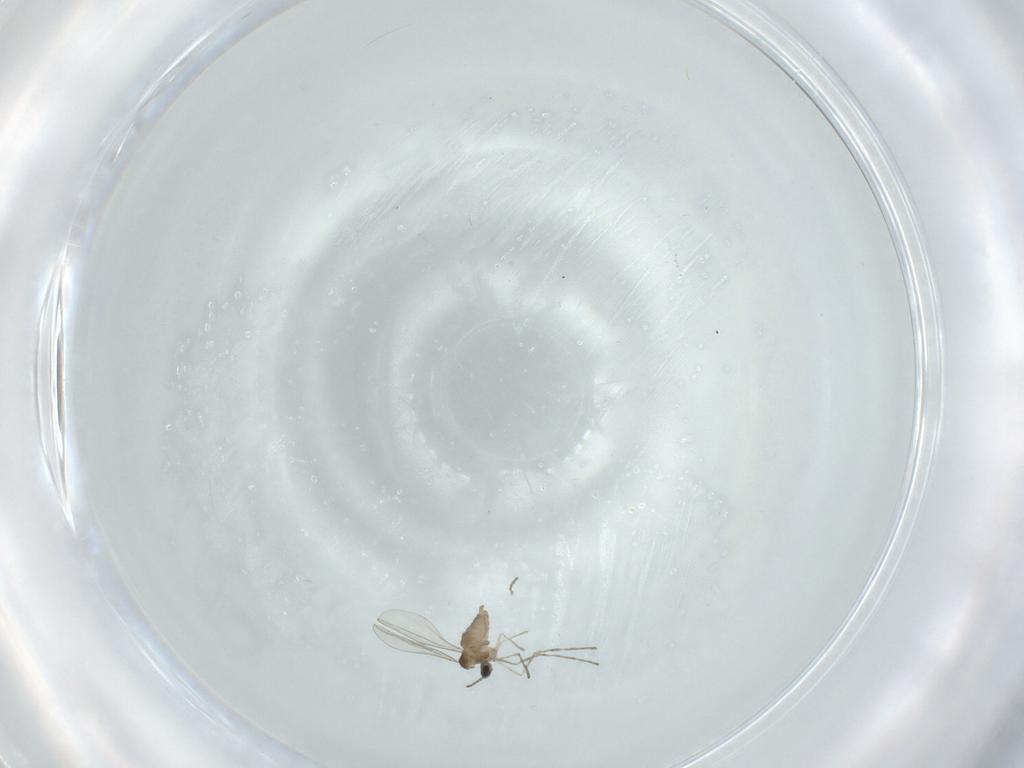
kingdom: Animalia
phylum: Arthropoda
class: Insecta
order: Diptera
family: Cecidomyiidae
